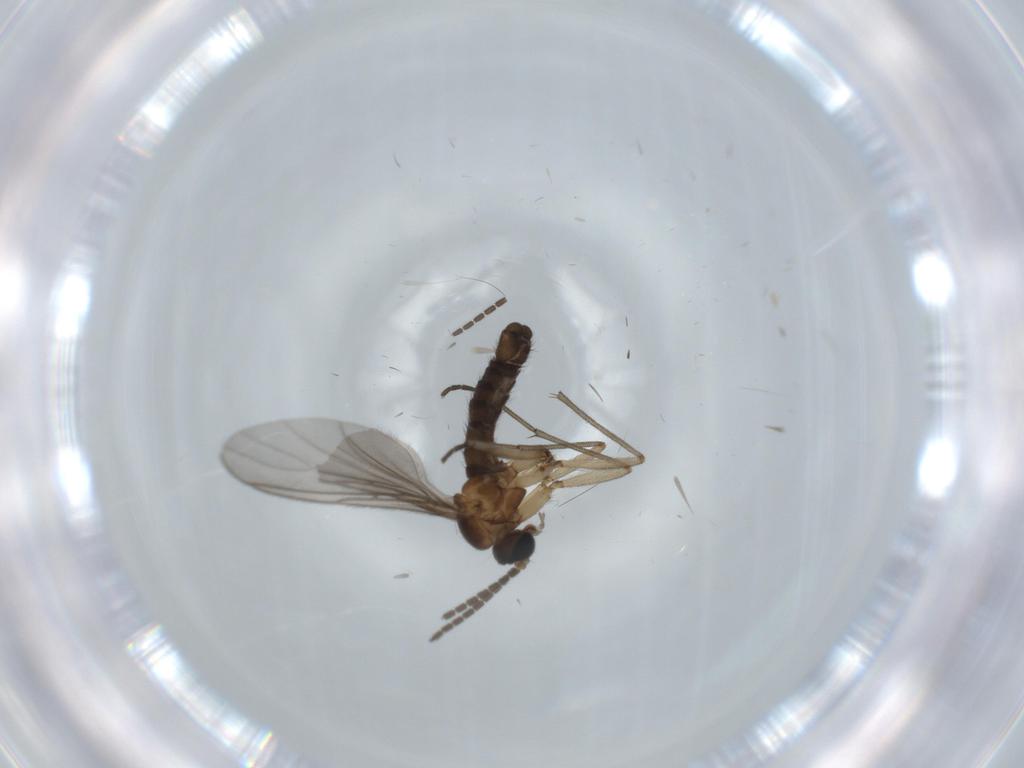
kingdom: Animalia
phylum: Arthropoda
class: Insecta
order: Diptera
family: Sciaridae
